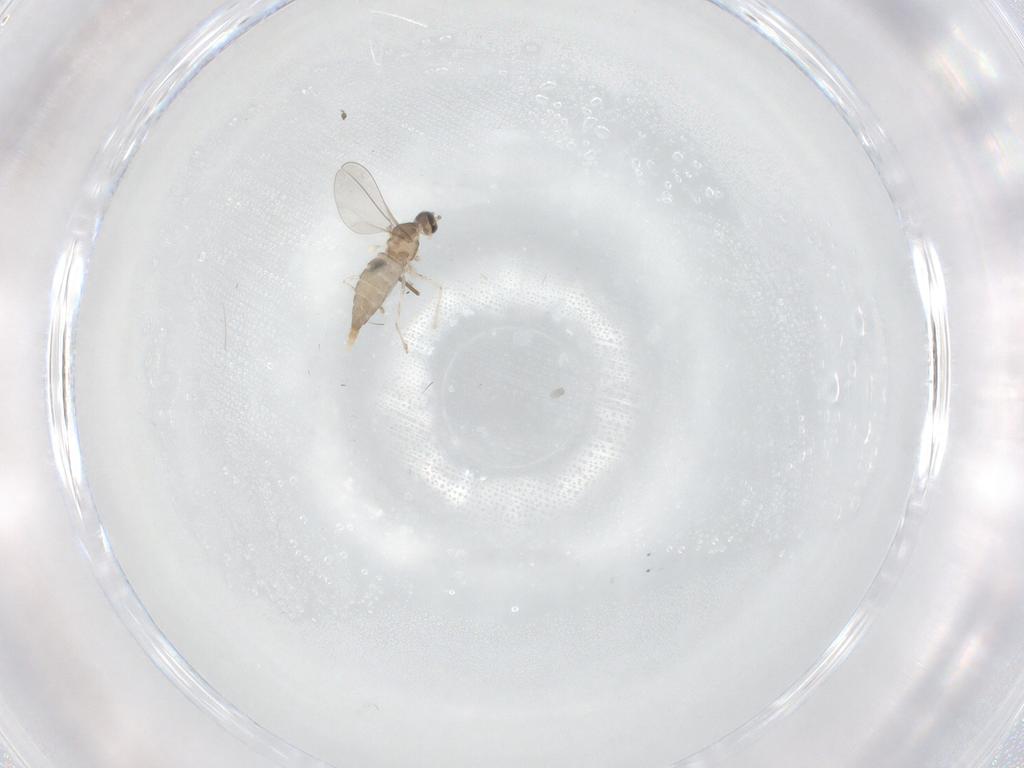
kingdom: Animalia
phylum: Arthropoda
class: Insecta
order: Diptera
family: Cecidomyiidae
